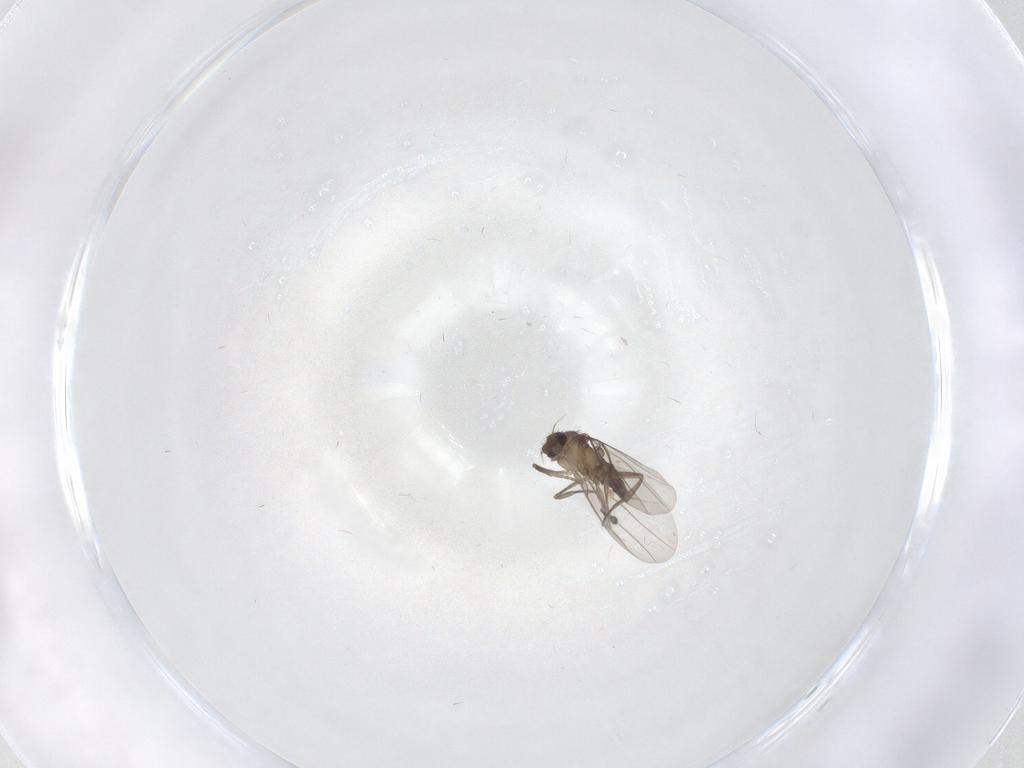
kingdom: Animalia
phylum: Arthropoda
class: Insecta
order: Diptera
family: Phoridae
